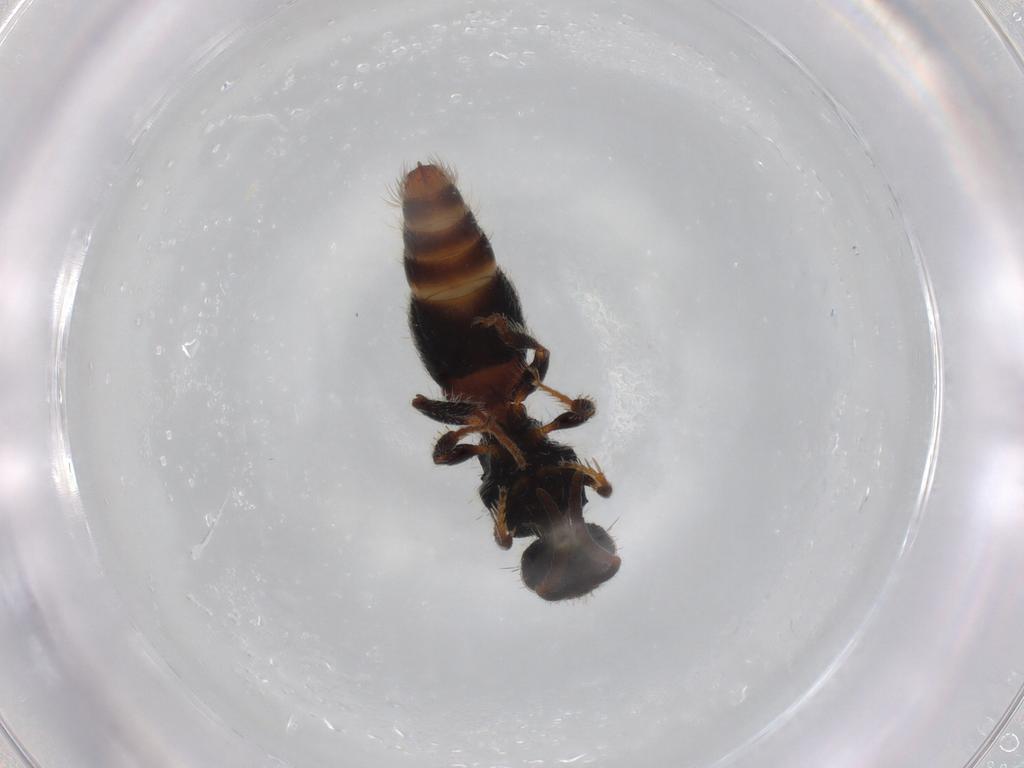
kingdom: Animalia
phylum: Arthropoda
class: Insecta
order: Hymenoptera
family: Mutillidae
